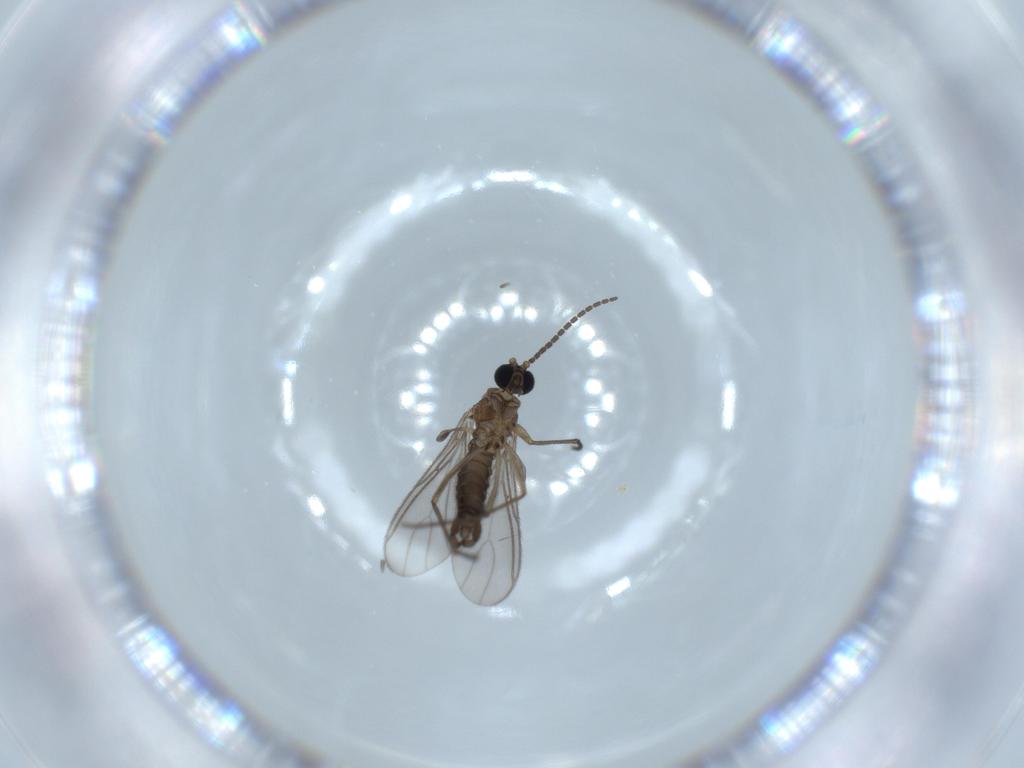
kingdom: Animalia
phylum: Arthropoda
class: Insecta
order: Diptera
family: Sciaridae
